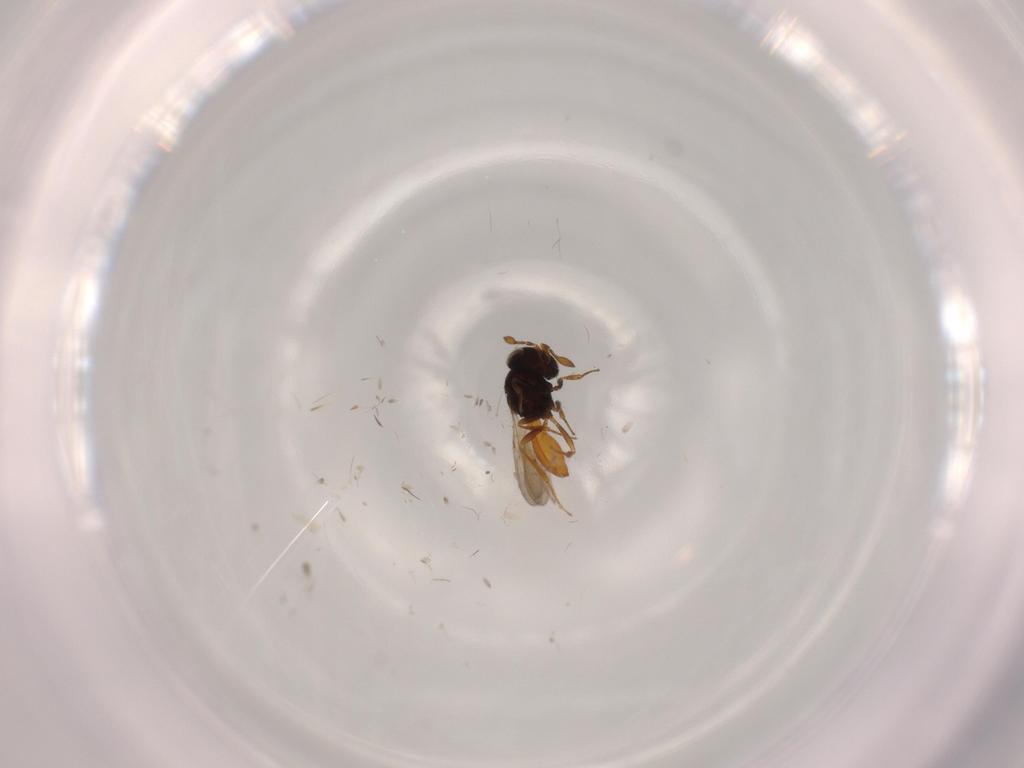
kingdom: Animalia
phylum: Arthropoda
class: Insecta
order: Hymenoptera
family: Scelionidae
